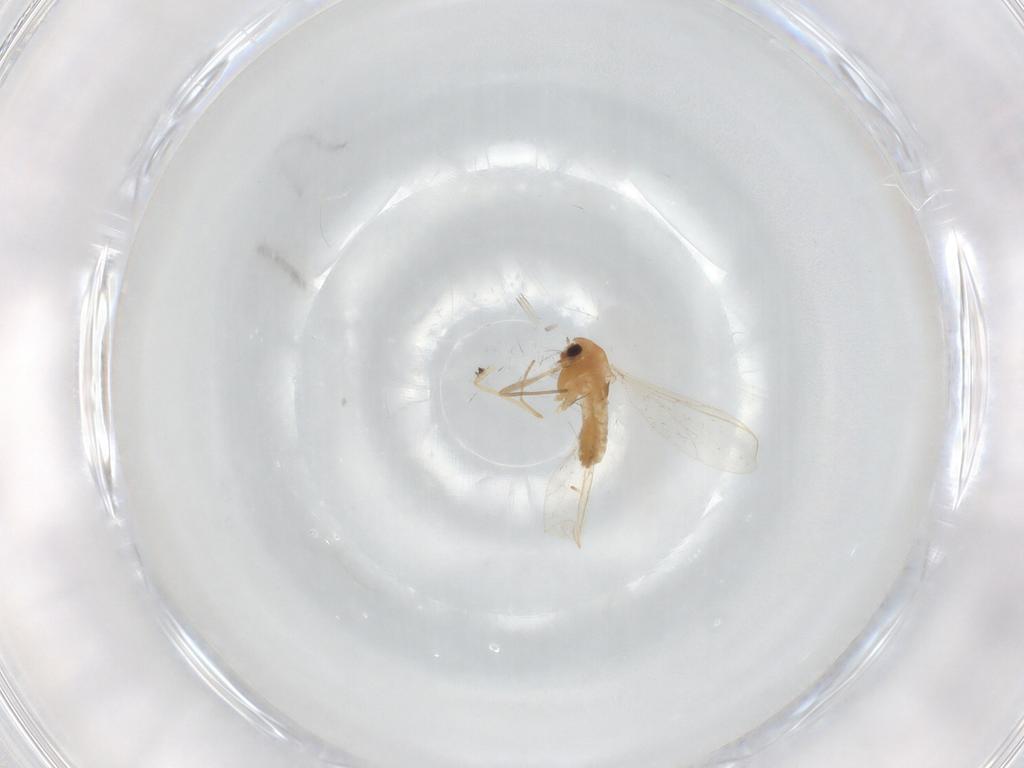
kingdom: Animalia
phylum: Arthropoda
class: Insecta
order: Diptera
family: Chironomidae
